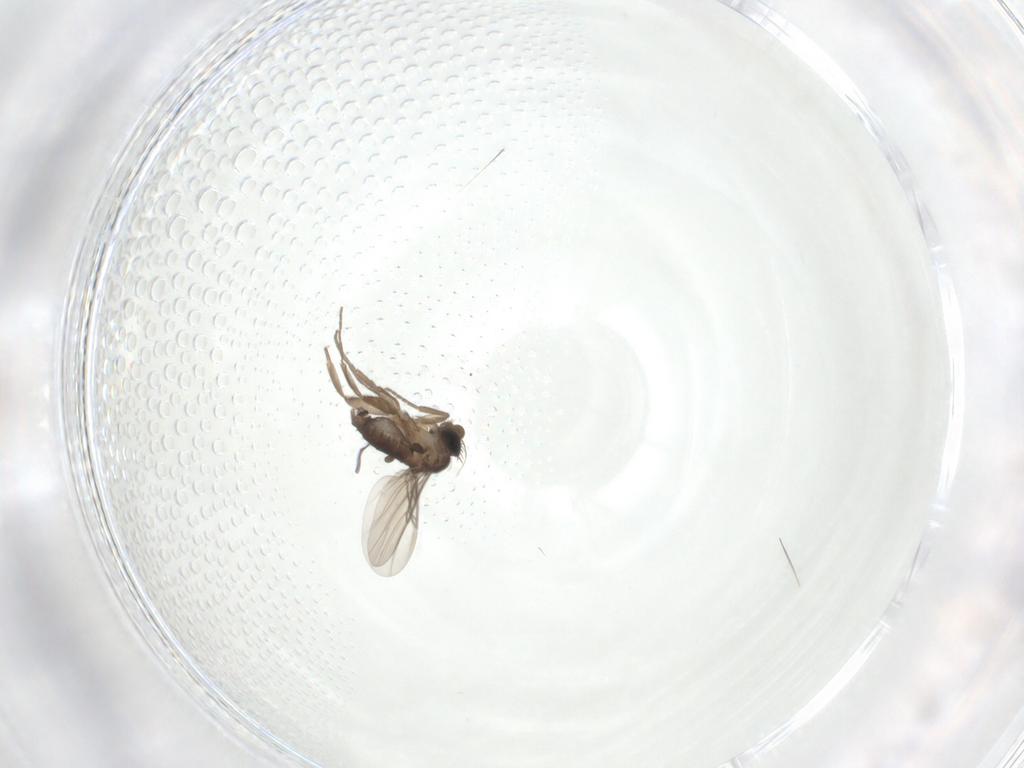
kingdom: Animalia
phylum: Arthropoda
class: Insecta
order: Diptera
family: Phoridae
